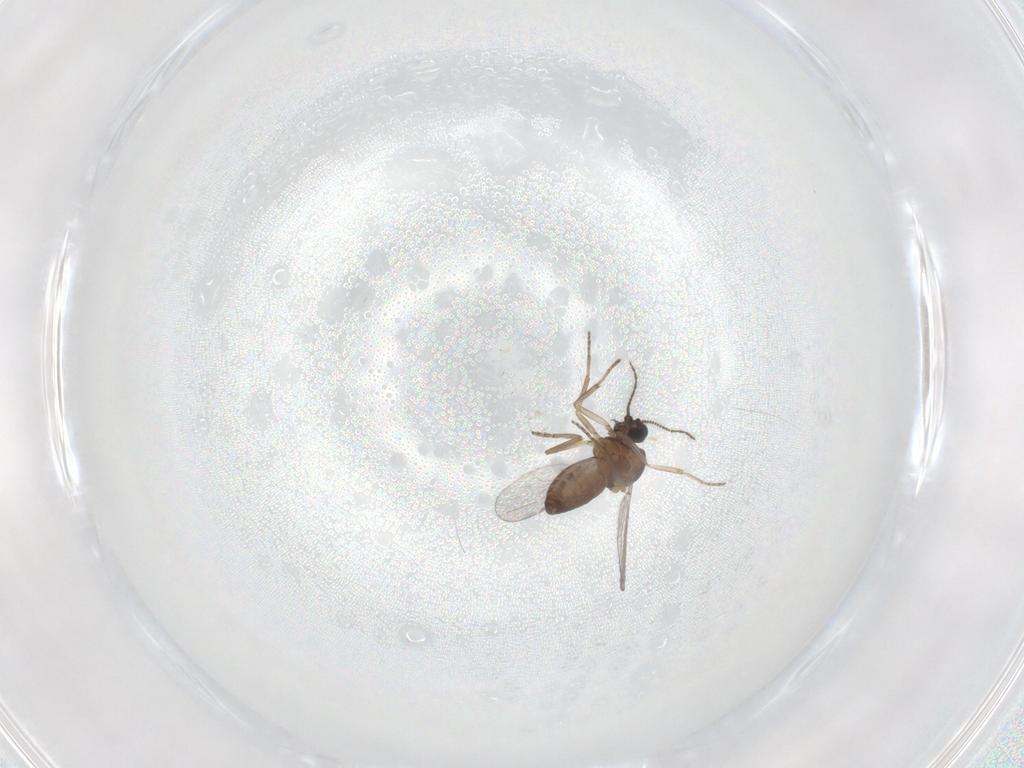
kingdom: Animalia
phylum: Arthropoda
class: Insecta
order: Diptera
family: Ceratopogonidae
